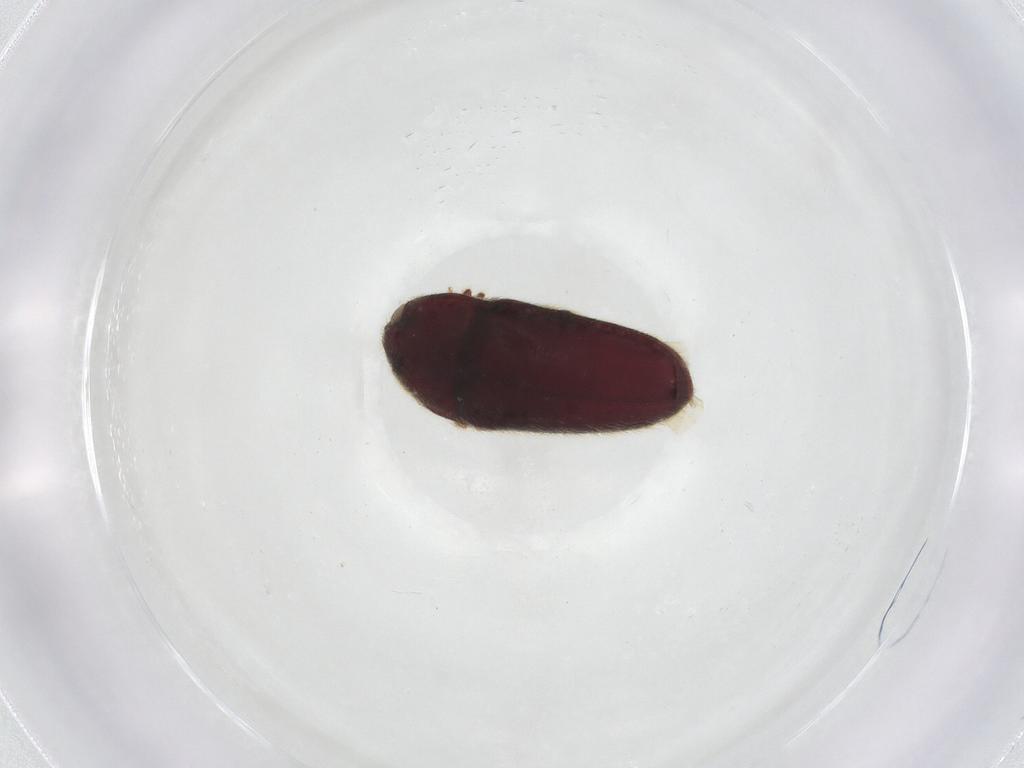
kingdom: Animalia
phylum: Arthropoda
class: Insecta
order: Coleoptera
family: Throscidae
